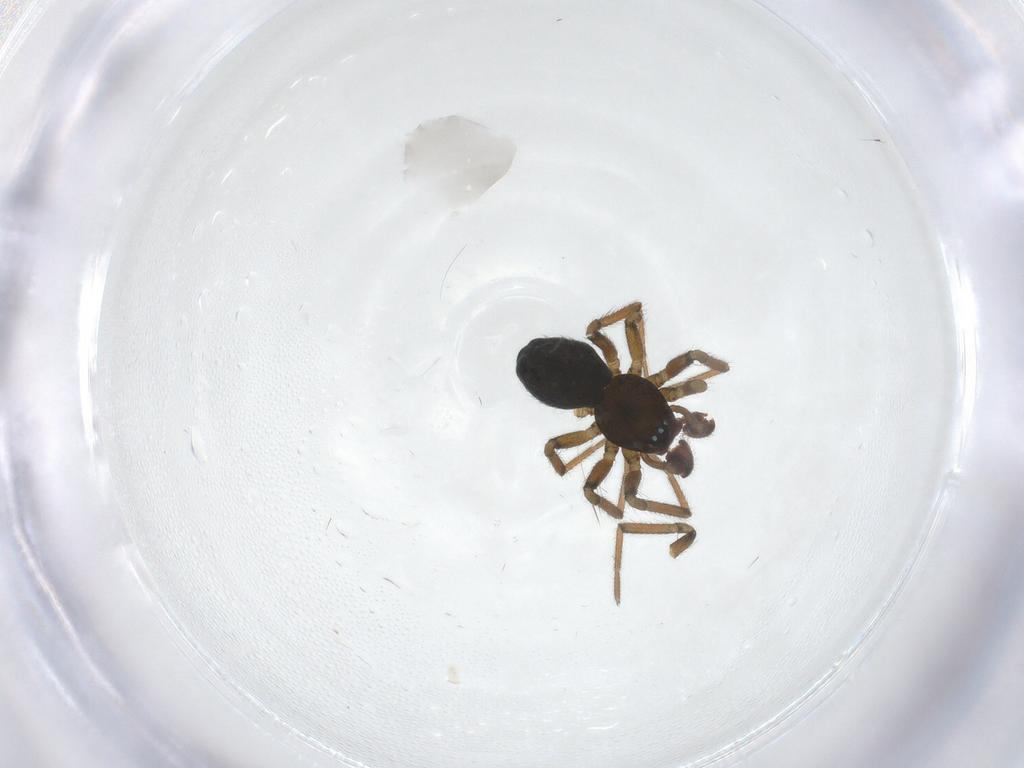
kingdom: Animalia
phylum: Arthropoda
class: Arachnida
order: Araneae
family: Linyphiidae
